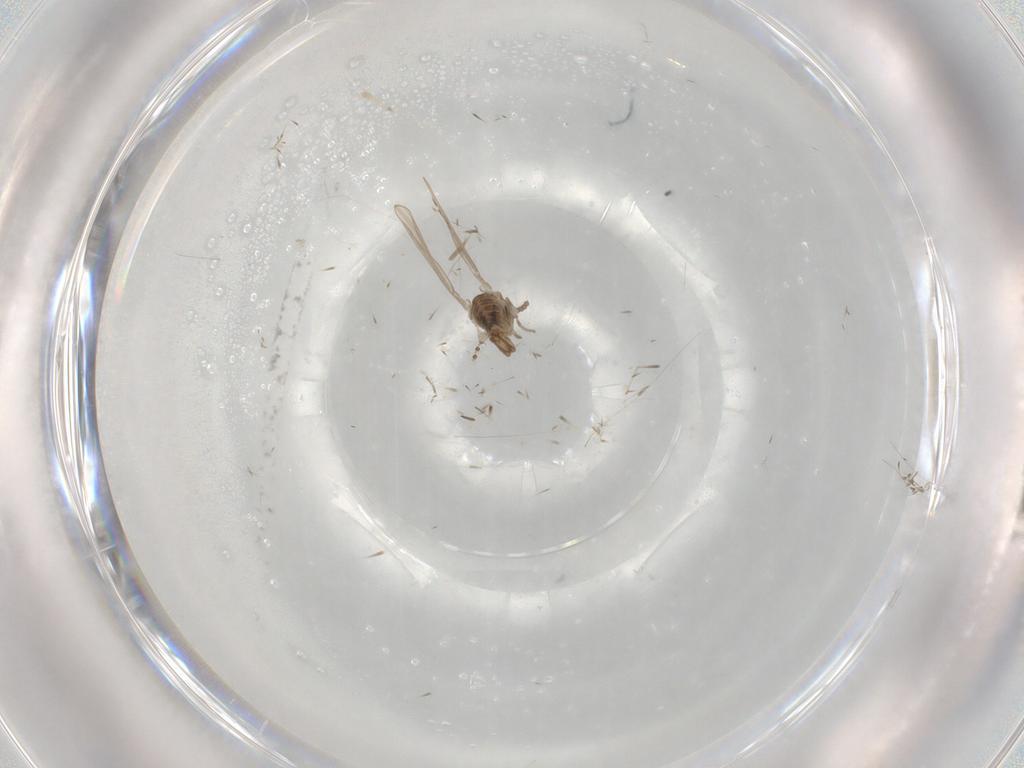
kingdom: Animalia
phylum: Arthropoda
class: Insecta
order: Diptera
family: Psychodidae
